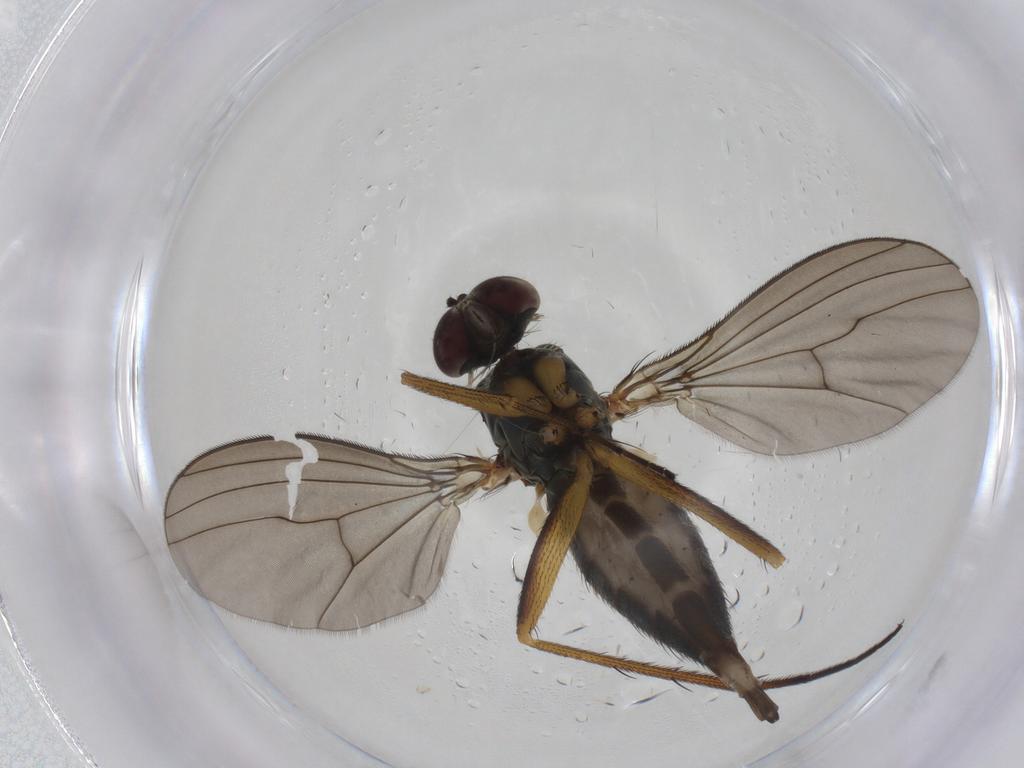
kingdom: Animalia
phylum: Arthropoda
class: Insecta
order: Diptera
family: Dolichopodidae
